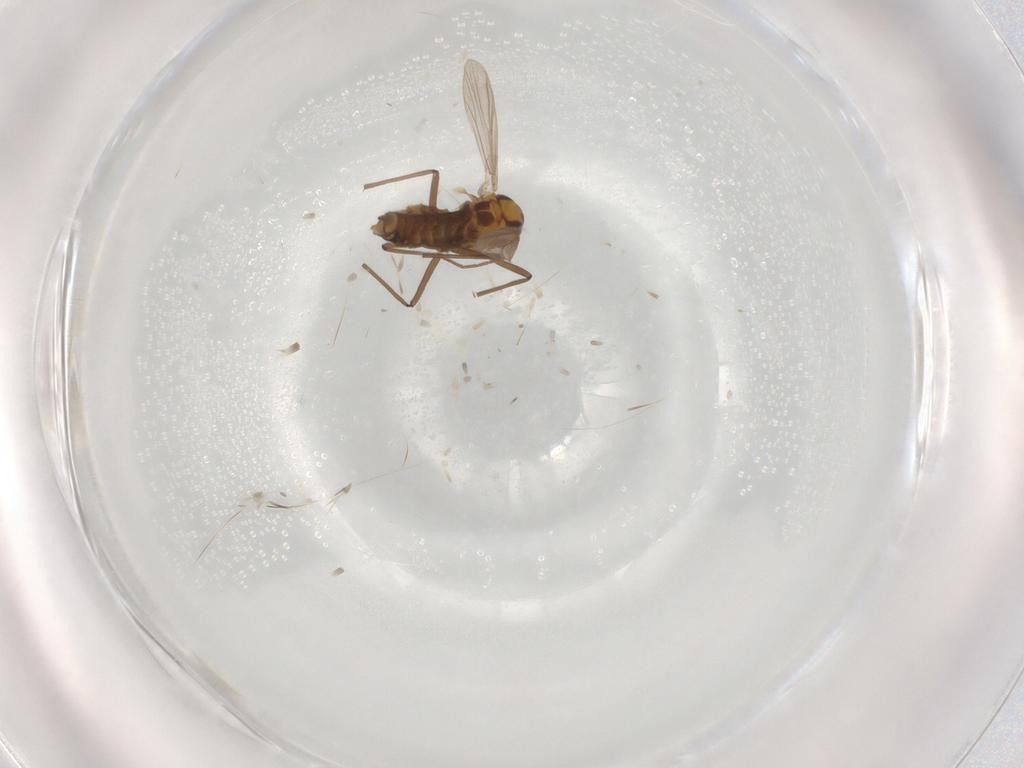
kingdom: Animalia
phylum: Arthropoda
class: Insecta
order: Diptera
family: Chironomidae
